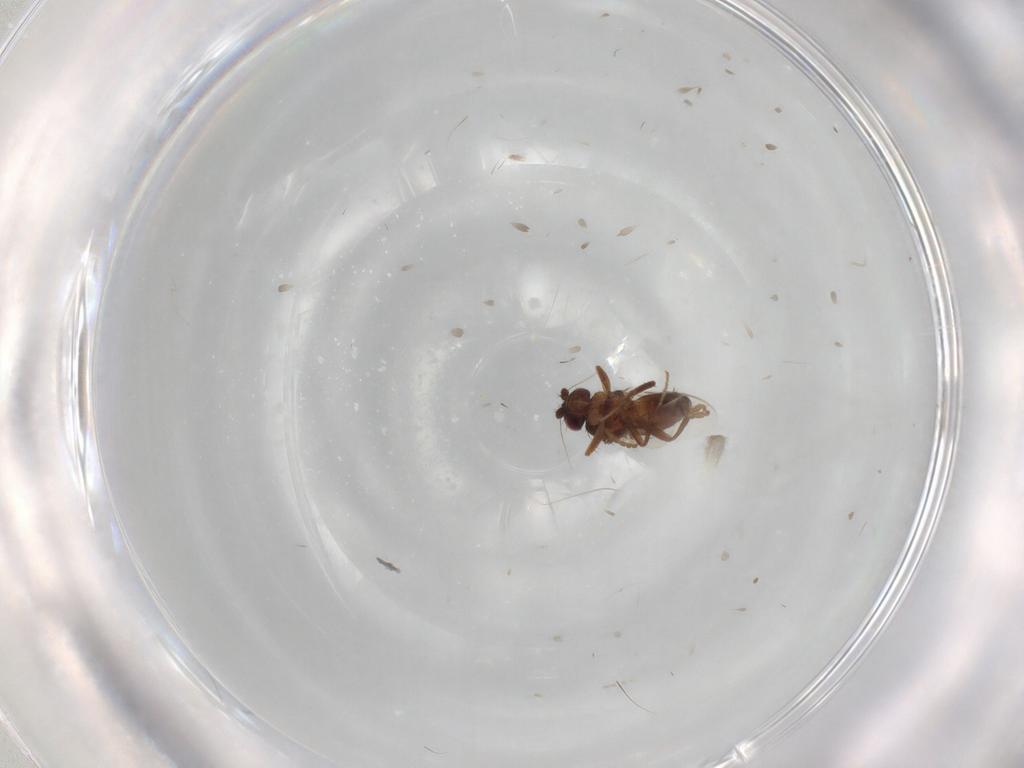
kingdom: Animalia
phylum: Arthropoda
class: Insecta
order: Diptera
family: Sphaeroceridae
